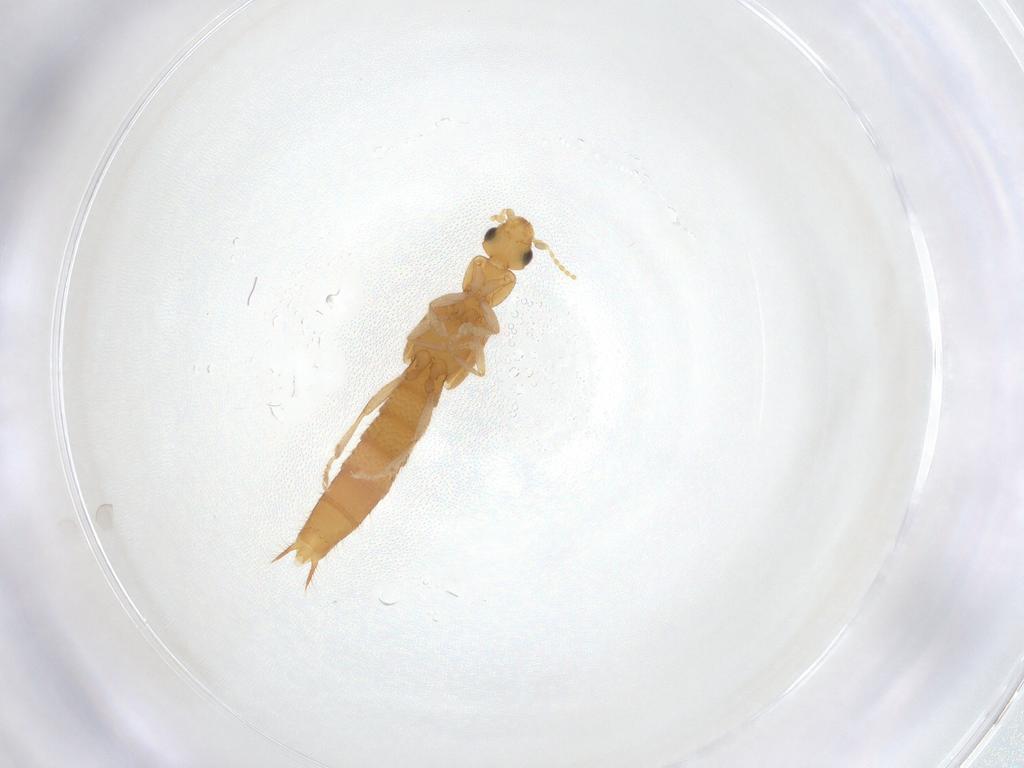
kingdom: Animalia
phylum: Arthropoda
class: Insecta
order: Coleoptera
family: Staphylinidae
